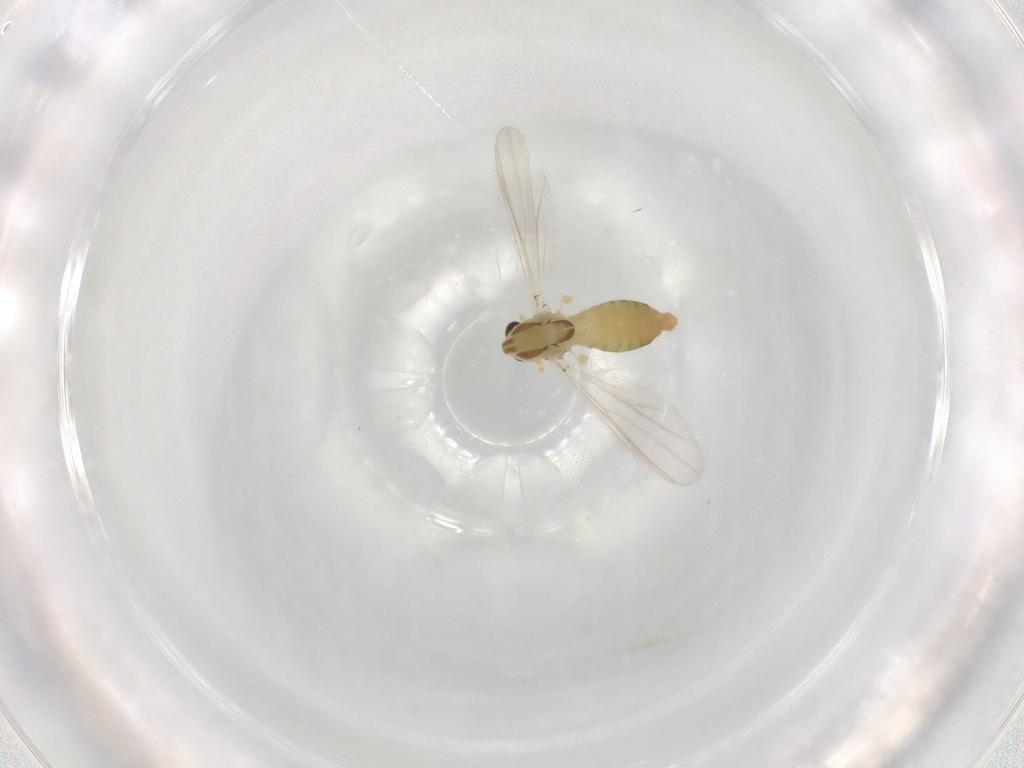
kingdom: Animalia
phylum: Arthropoda
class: Insecta
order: Diptera
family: Chironomidae
